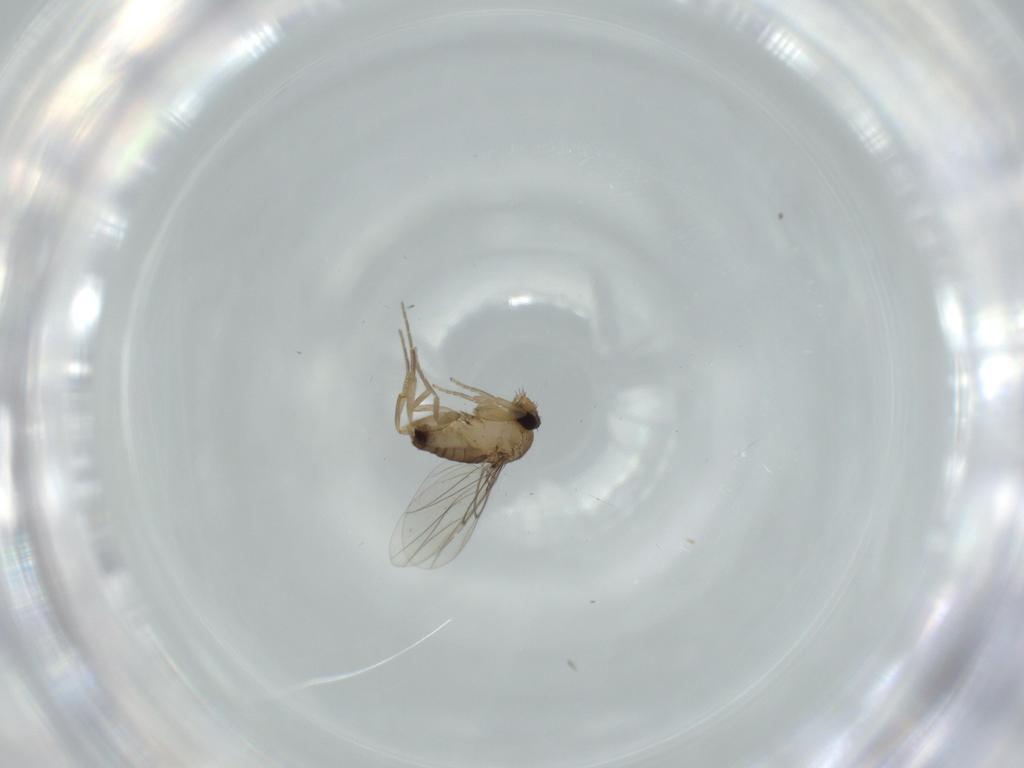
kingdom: Animalia
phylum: Arthropoda
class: Insecta
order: Diptera
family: Phoridae
